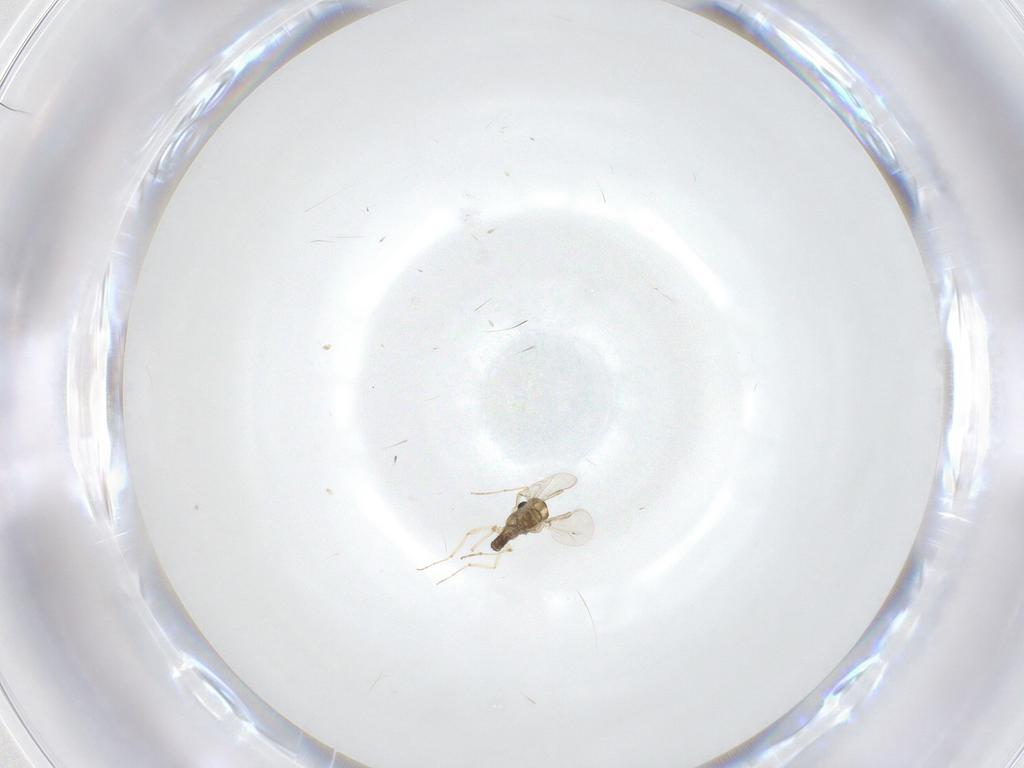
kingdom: Animalia
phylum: Arthropoda
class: Insecta
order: Diptera
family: Chironomidae
